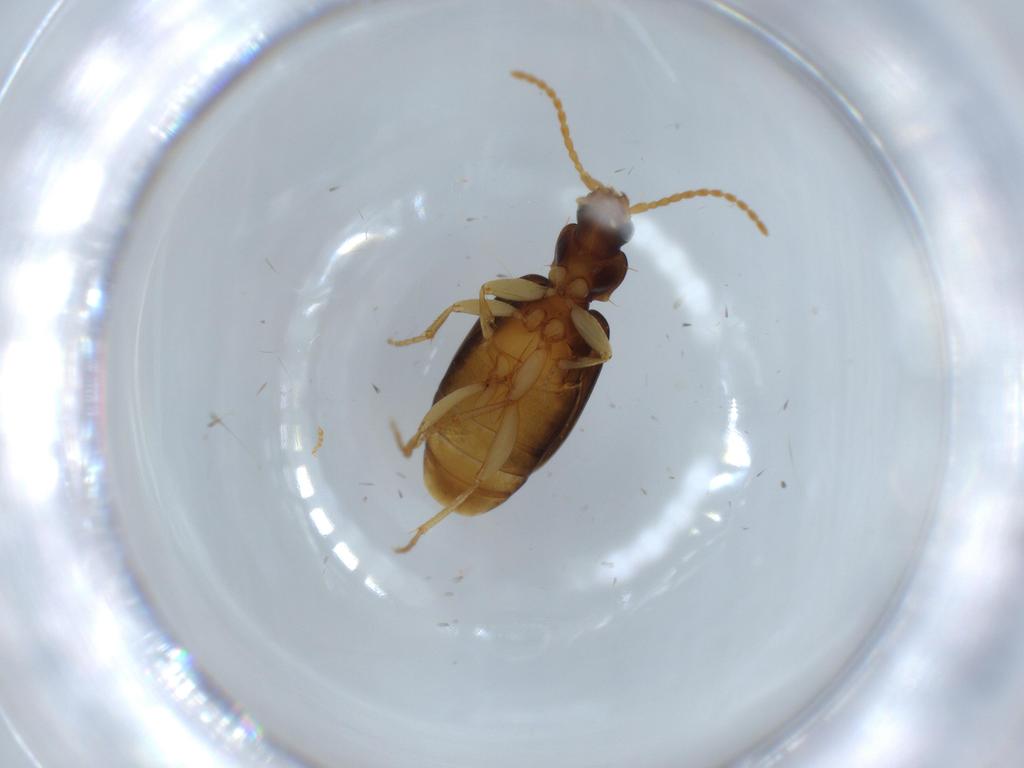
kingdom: Animalia
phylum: Arthropoda
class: Insecta
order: Coleoptera
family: Carabidae
